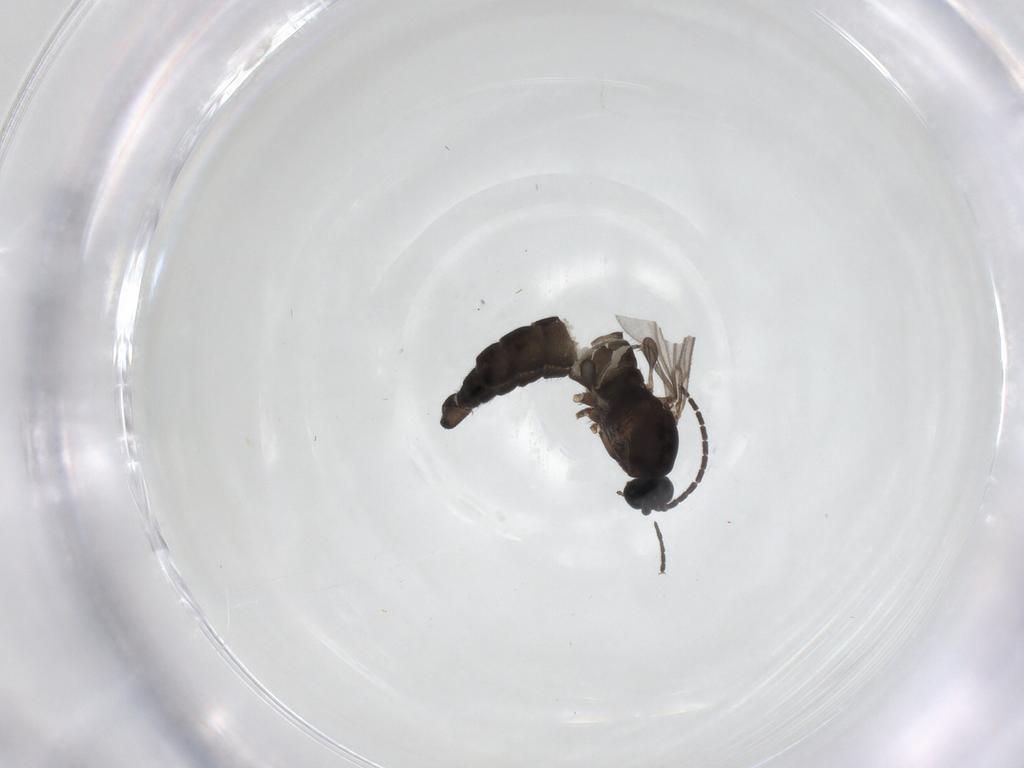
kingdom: Animalia
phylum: Arthropoda
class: Insecta
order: Diptera
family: Sciaridae
